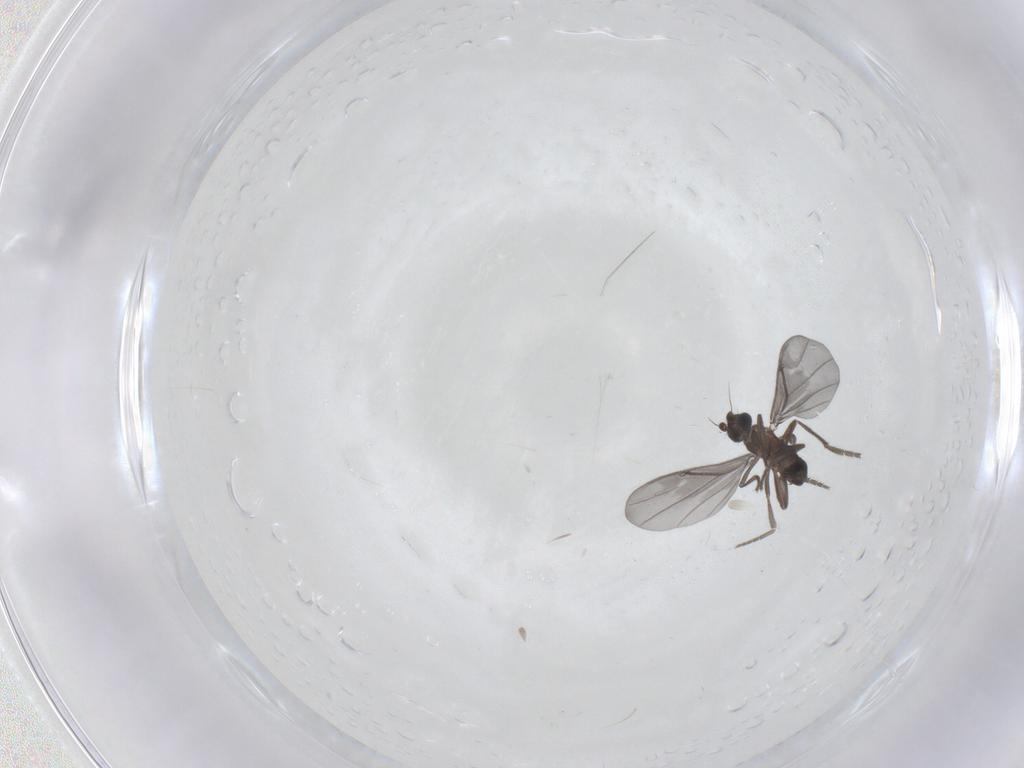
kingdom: Animalia
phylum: Arthropoda
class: Insecta
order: Diptera
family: Phoridae
